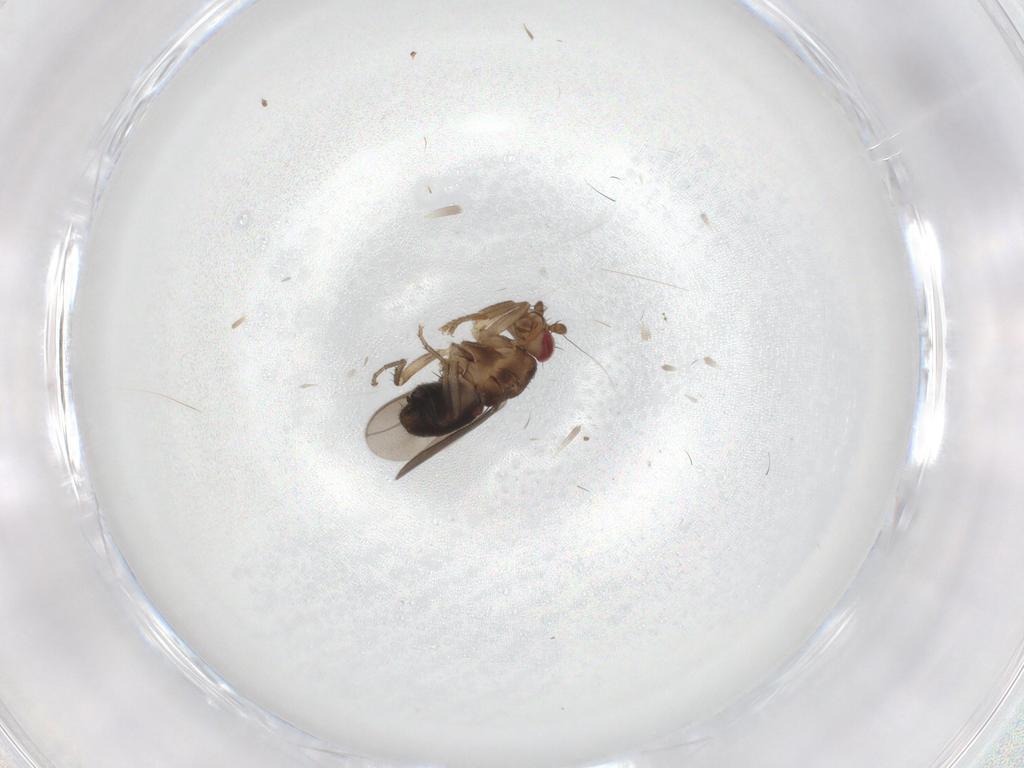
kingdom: Animalia
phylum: Arthropoda
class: Insecta
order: Diptera
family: Sphaeroceridae
